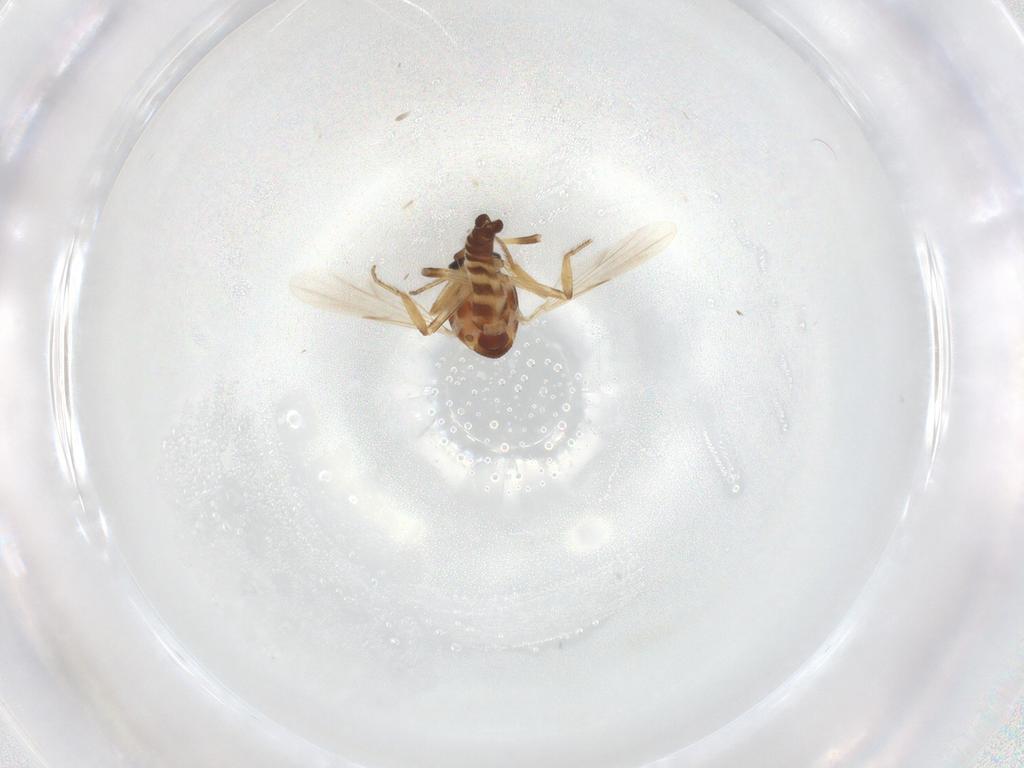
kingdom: Animalia
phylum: Arthropoda
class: Insecta
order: Diptera
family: Ceratopogonidae
